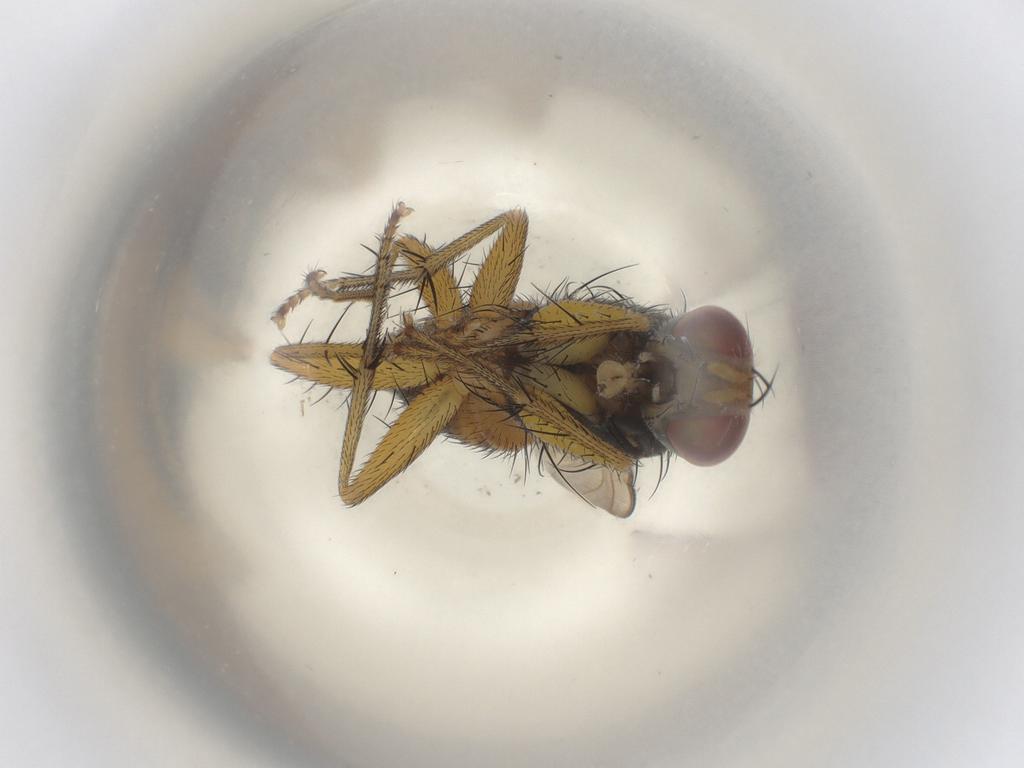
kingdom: Animalia
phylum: Arthropoda
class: Insecta
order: Diptera
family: Muscidae
